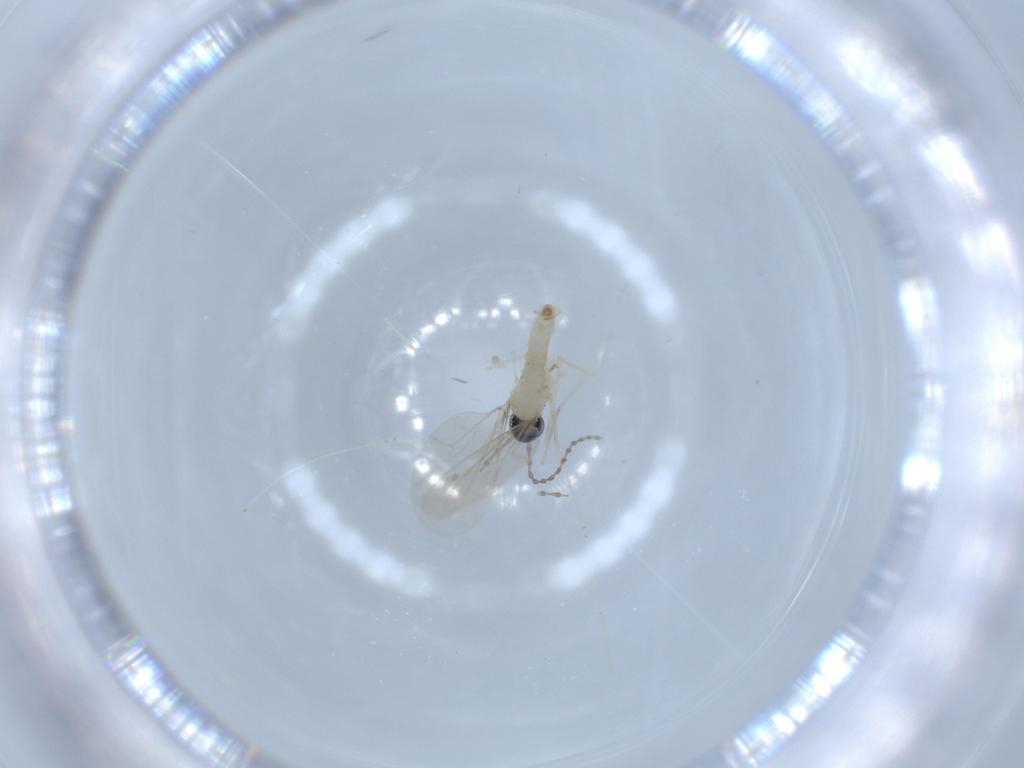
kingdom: Animalia
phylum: Arthropoda
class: Insecta
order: Diptera
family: Cecidomyiidae
